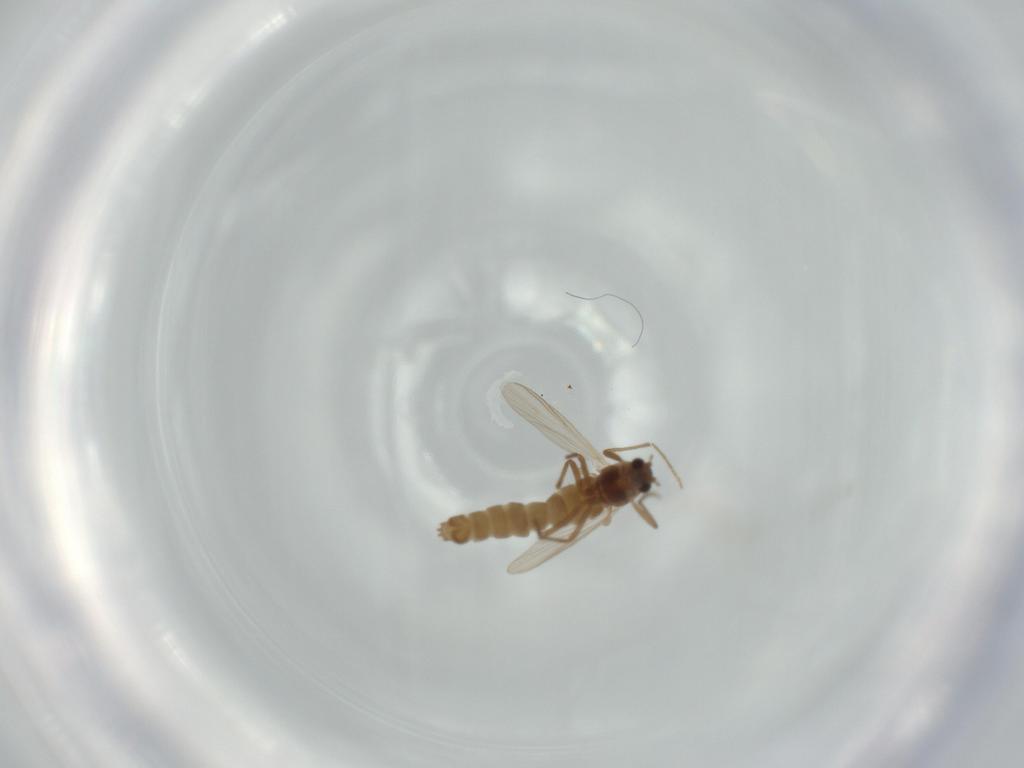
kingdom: Animalia
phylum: Arthropoda
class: Insecta
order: Diptera
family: Chironomidae
